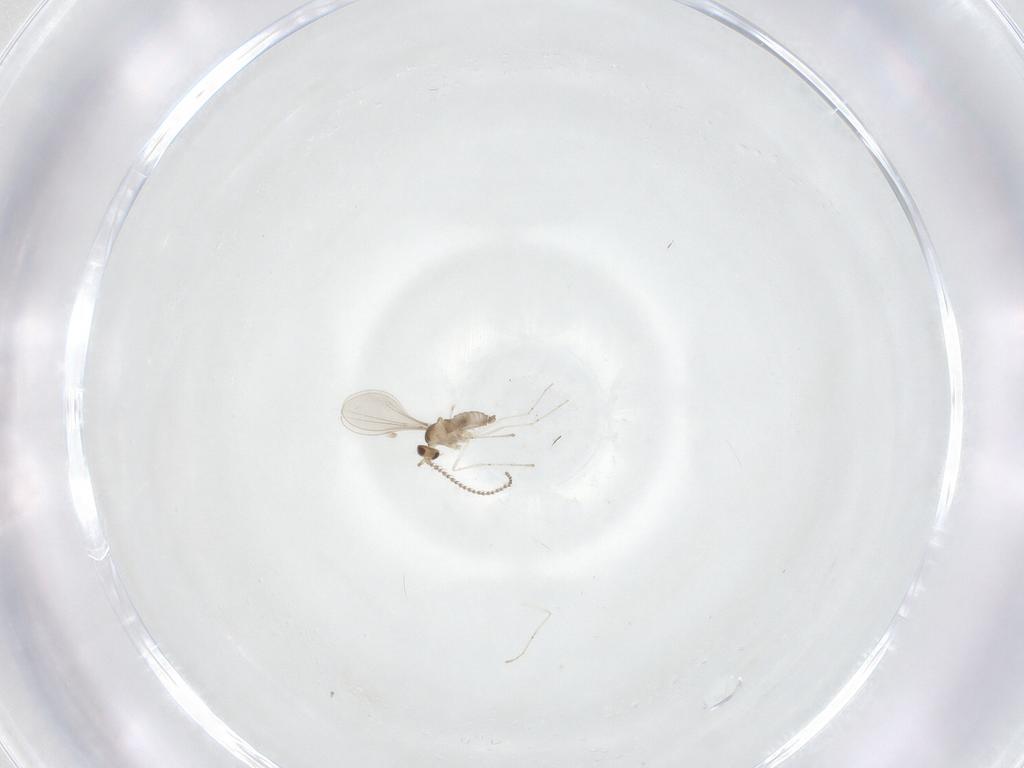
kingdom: Animalia
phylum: Arthropoda
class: Insecta
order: Diptera
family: Cecidomyiidae
